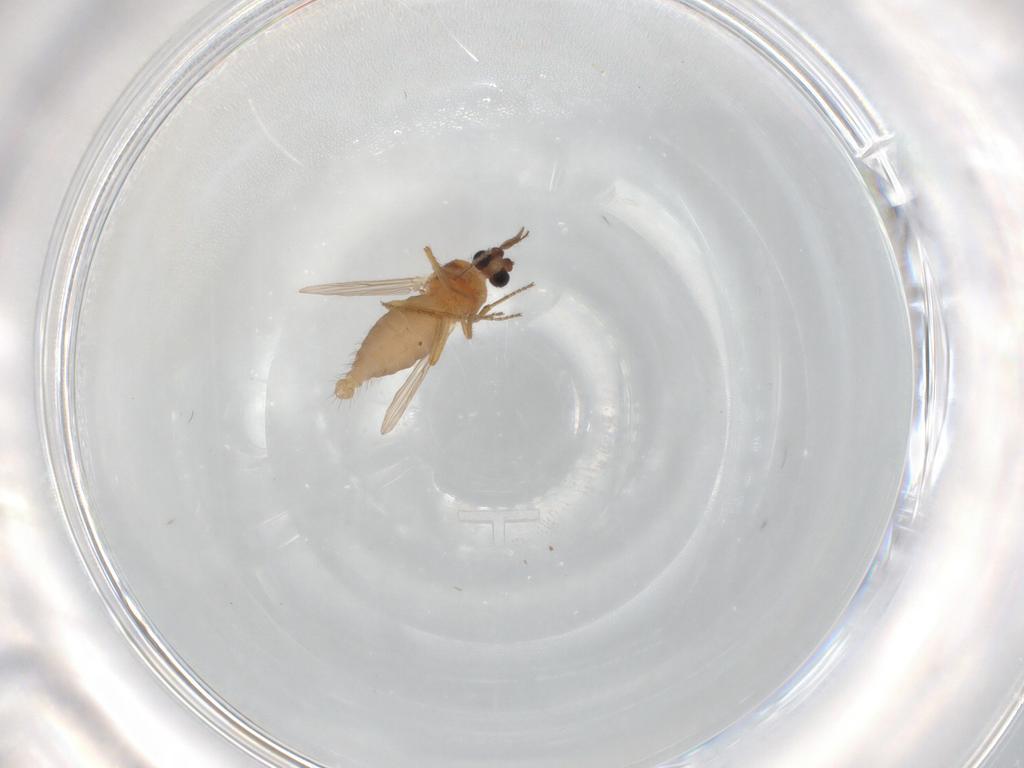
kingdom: Animalia
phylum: Arthropoda
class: Insecta
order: Diptera
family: Ceratopogonidae
